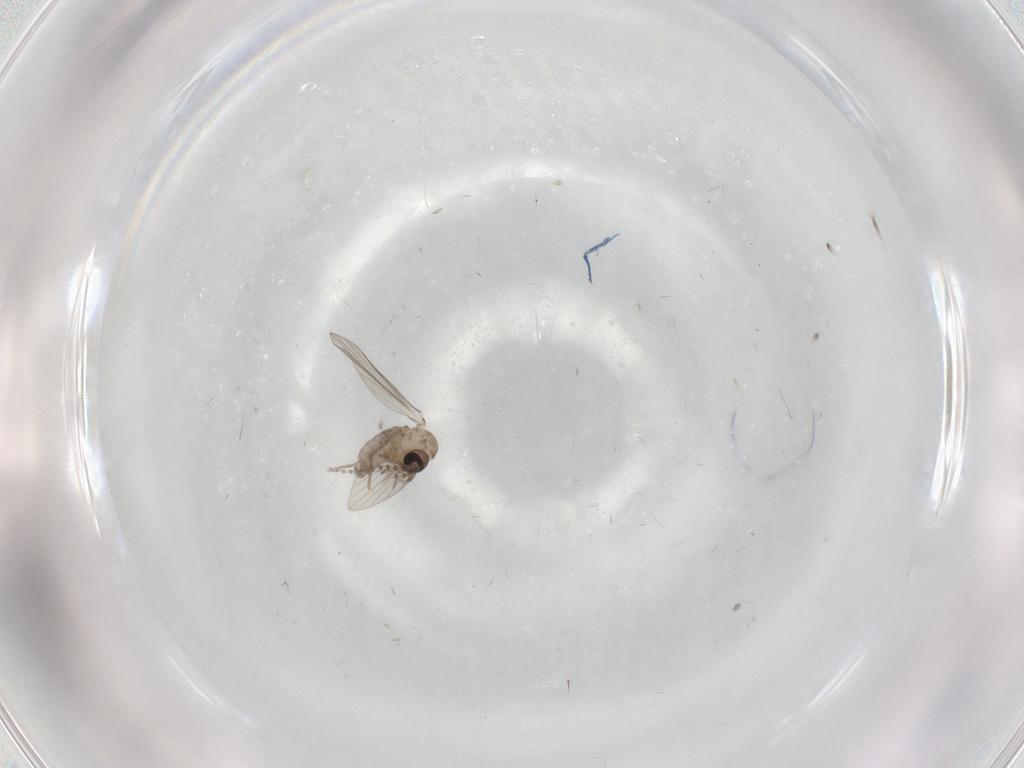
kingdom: Animalia
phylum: Arthropoda
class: Insecta
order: Diptera
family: Psychodidae
